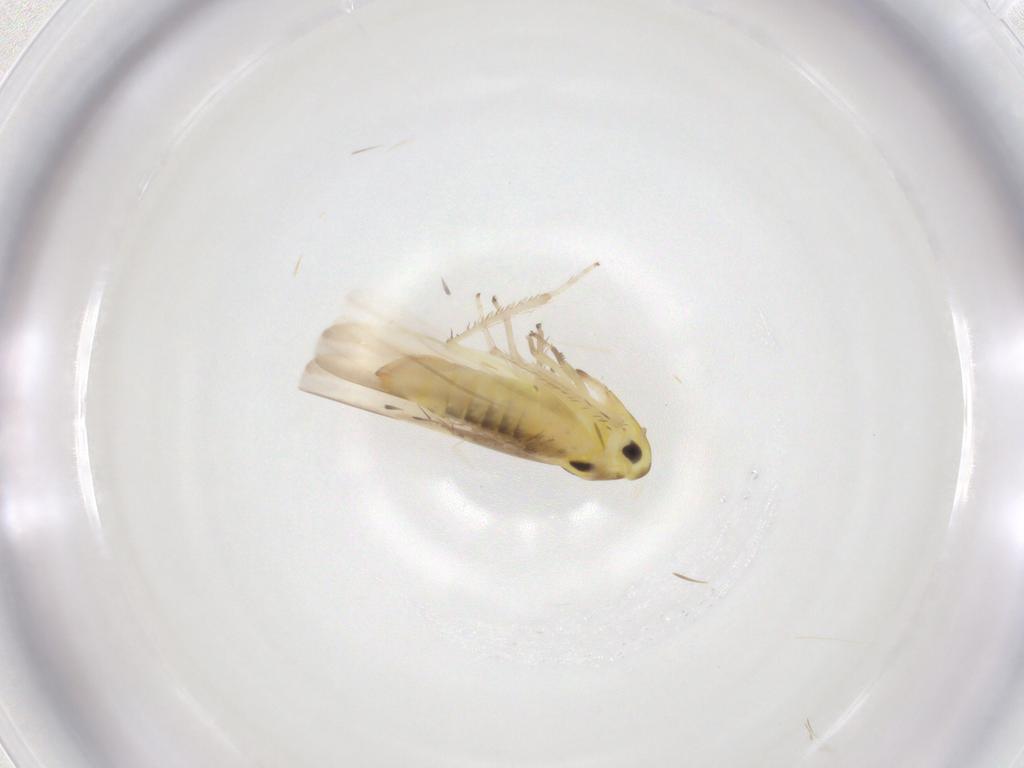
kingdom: Animalia
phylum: Arthropoda
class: Insecta
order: Hemiptera
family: Cicadellidae
